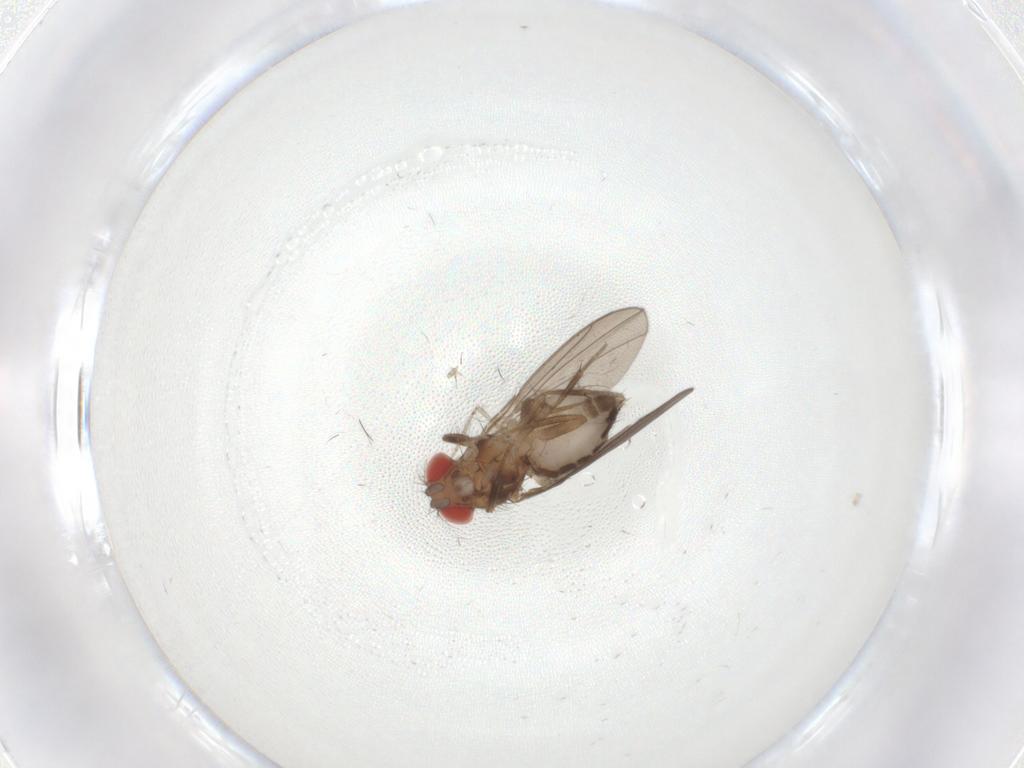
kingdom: Animalia
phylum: Arthropoda
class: Insecta
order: Diptera
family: Drosophilidae
